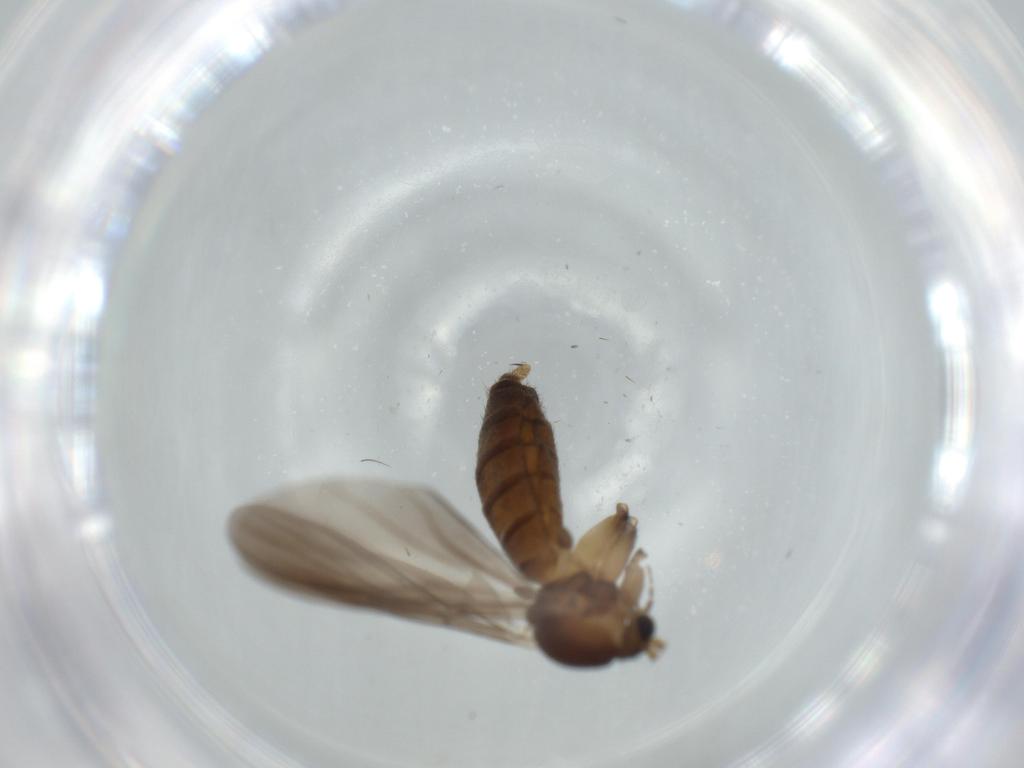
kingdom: Animalia
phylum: Arthropoda
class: Insecta
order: Diptera
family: Mycetophilidae
